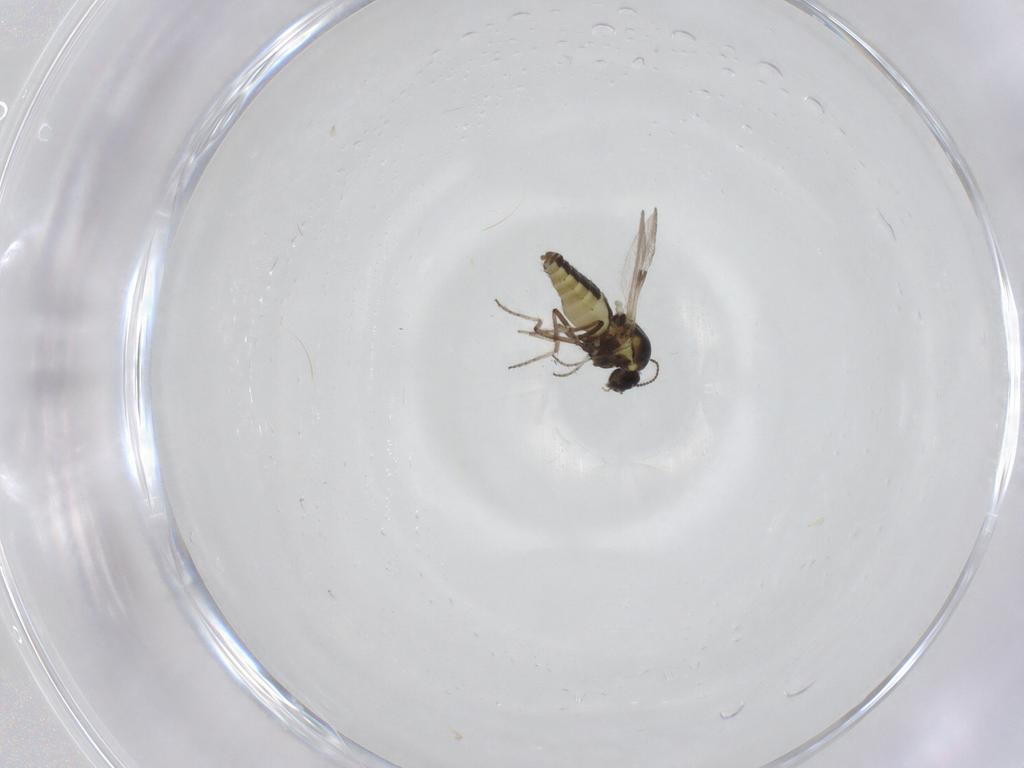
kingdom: Animalia
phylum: Arthropoda
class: Insecta
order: Diptera
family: Ceratopogonidae
